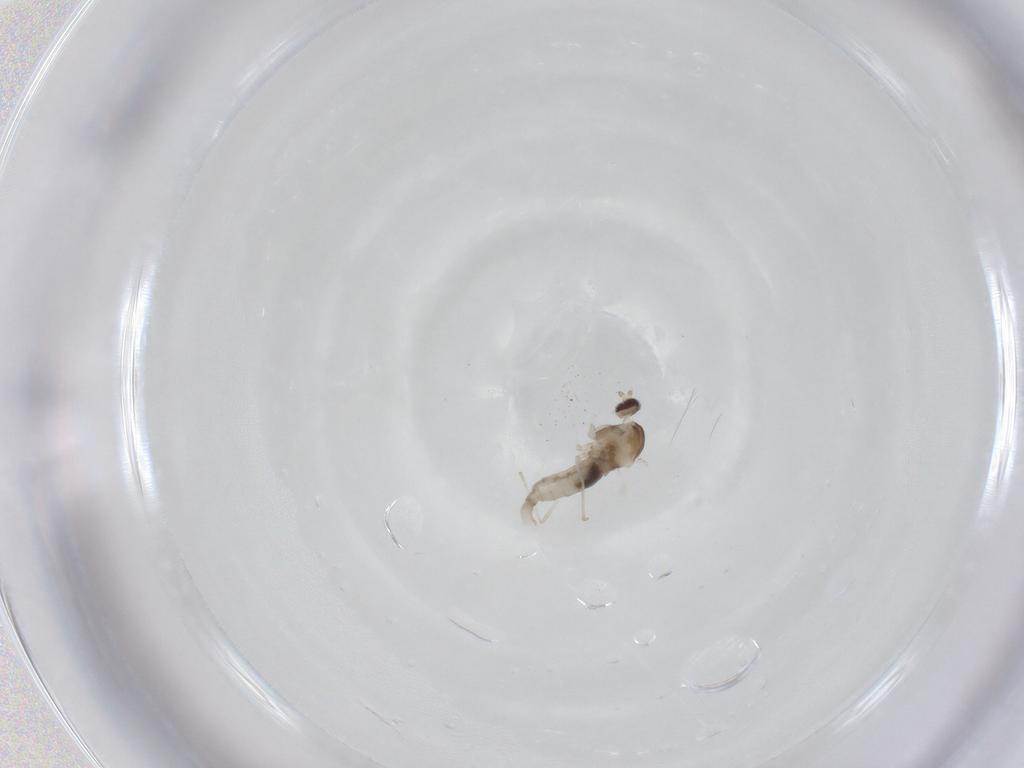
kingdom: Animalia
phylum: Arthropoda
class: Insecta
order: Diptera
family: Cecidomyiidae
